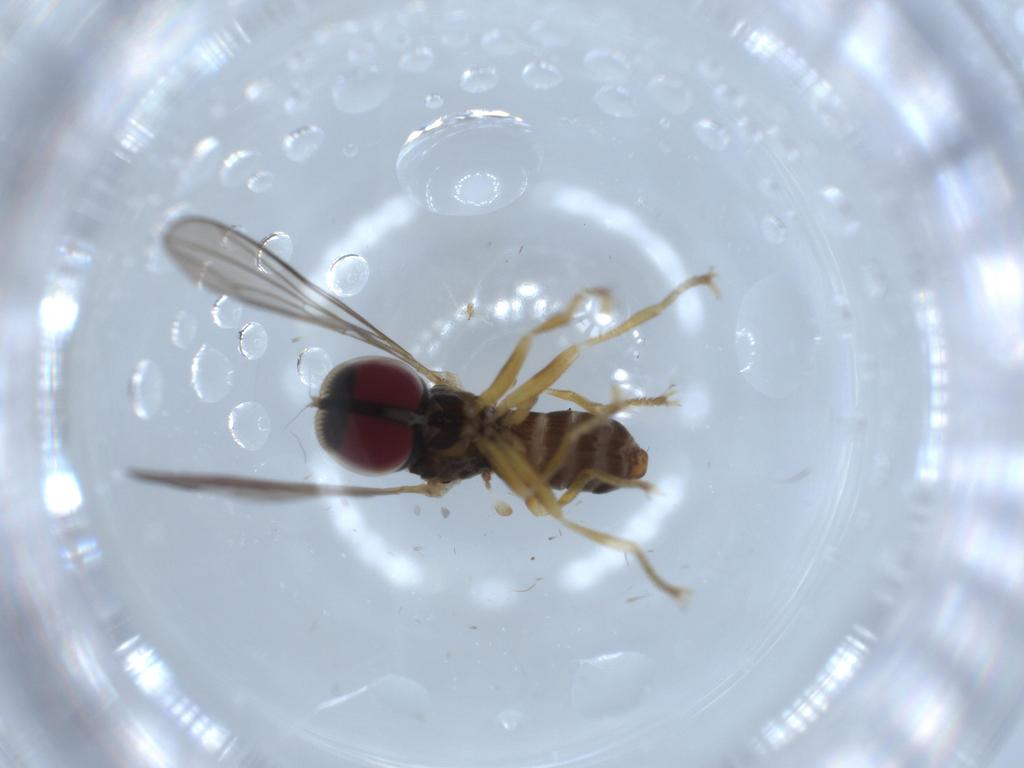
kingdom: Animalia
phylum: Arthropoda
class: Insecta
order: Diptera
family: Pipunculidae
